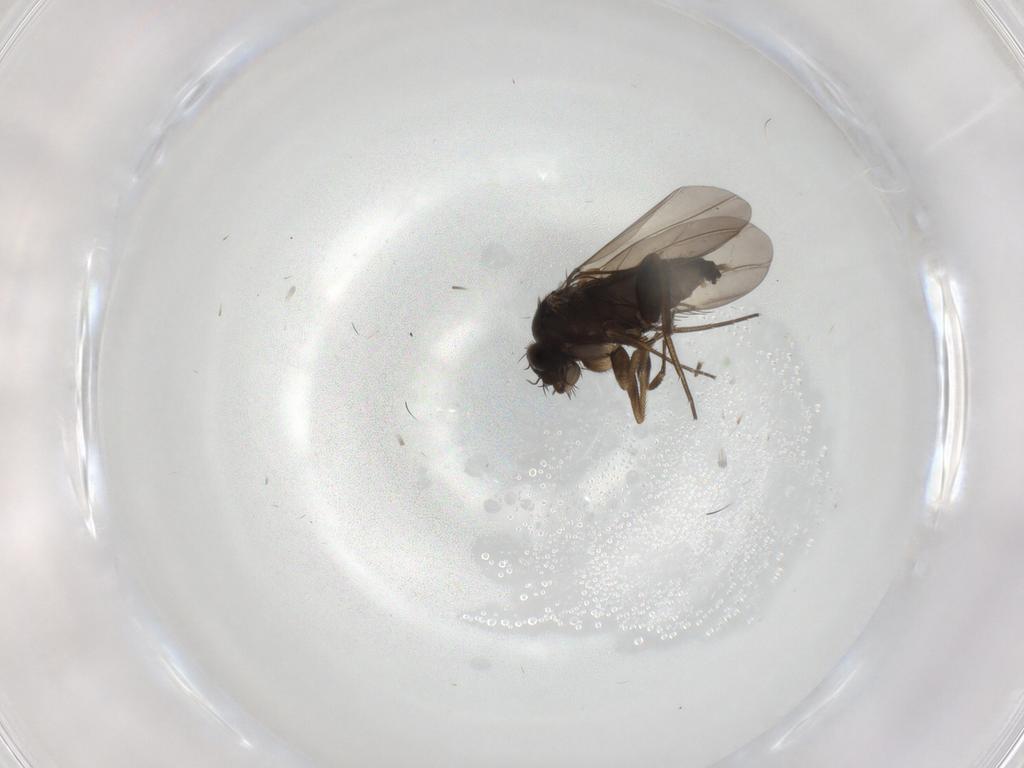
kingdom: Animalia
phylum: Arthropoda
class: Insecta
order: Diptera
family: Phoridae
